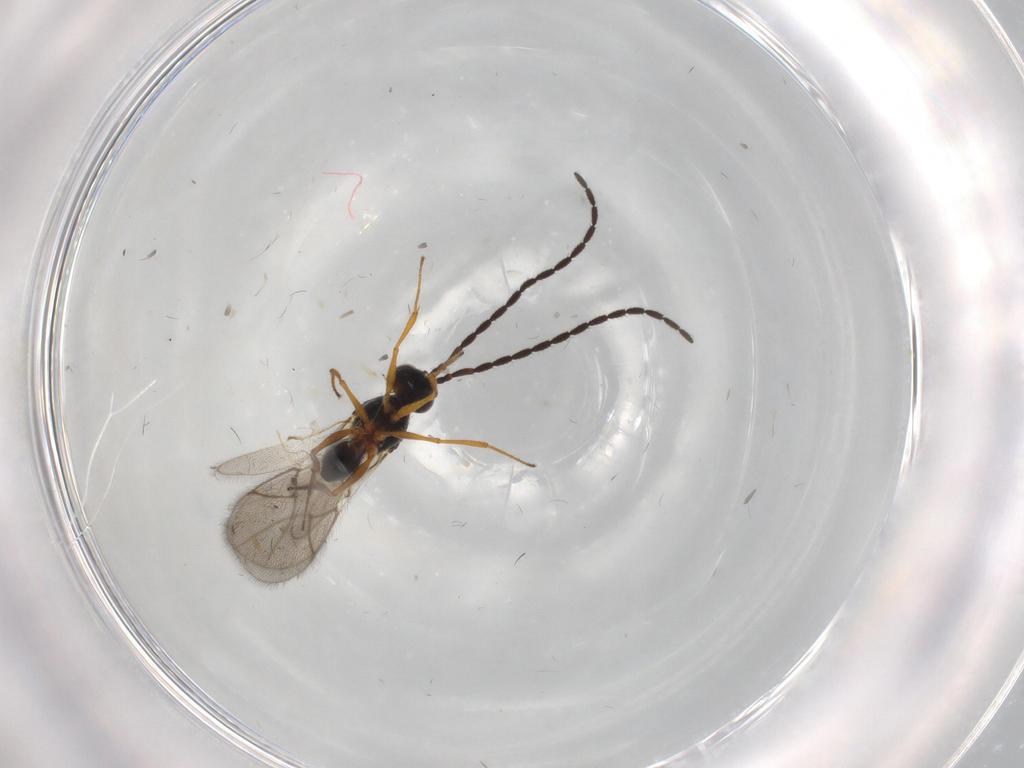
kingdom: Animalia
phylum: Arthropoda
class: Insecta
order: Hymenoptera
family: Figitidae
